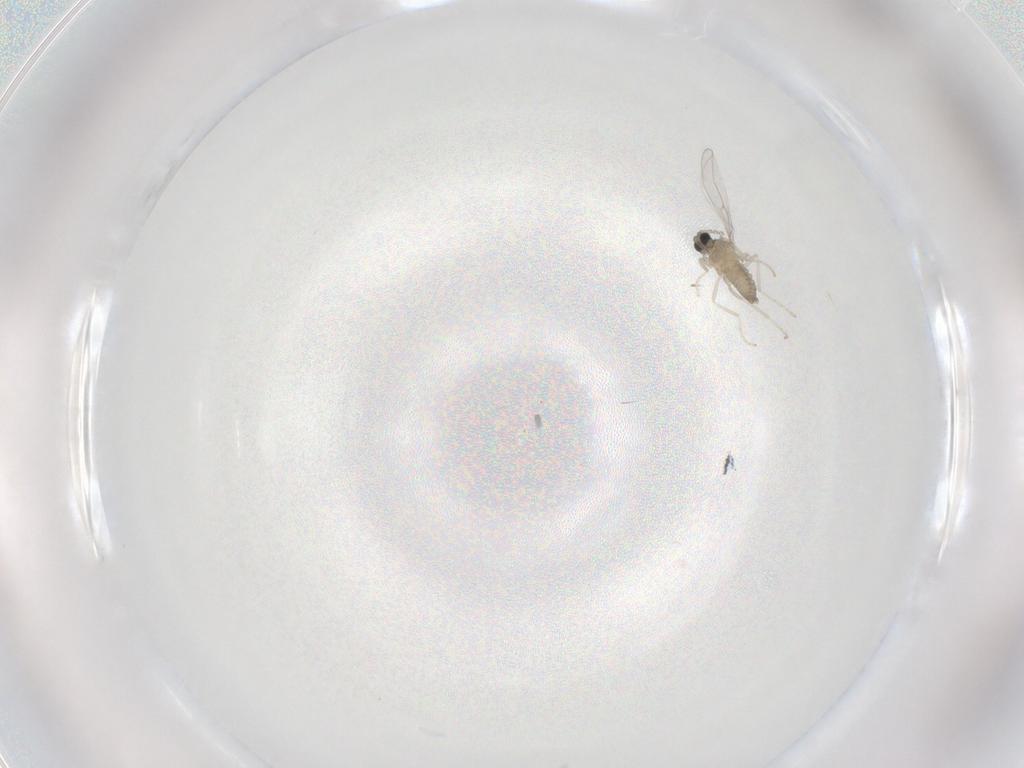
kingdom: Animalia
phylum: Arthropoda
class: Insecta
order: Diptera
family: Cecidomyiidae
